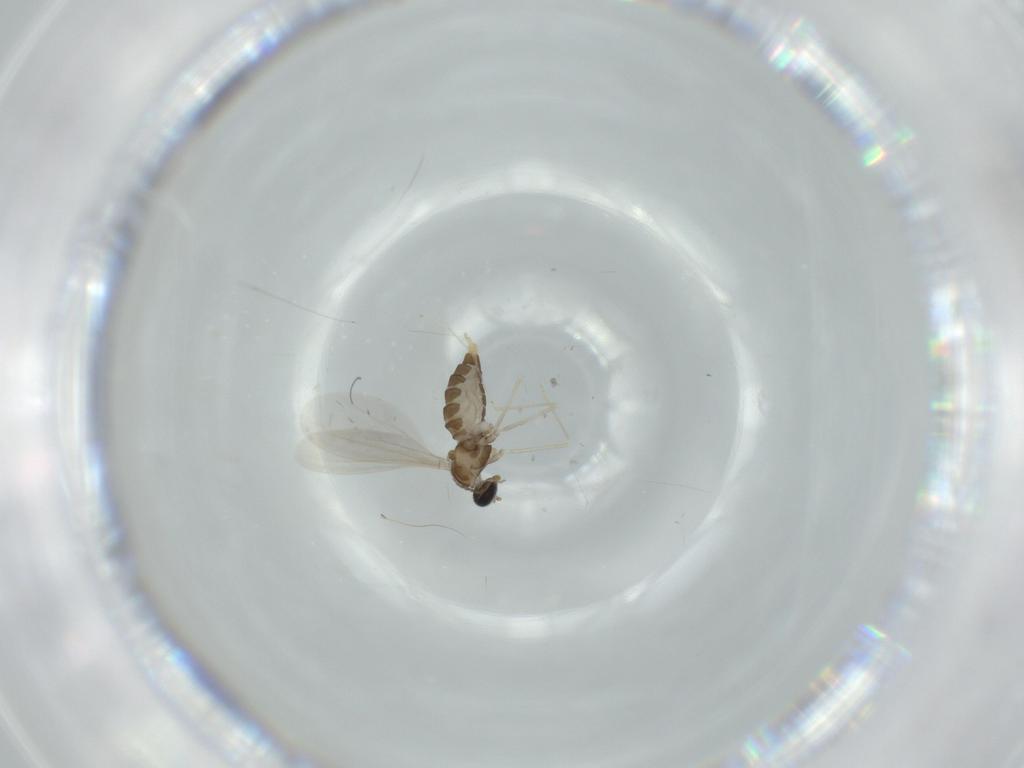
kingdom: Animalia
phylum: Arthropoda
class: Insecta
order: Diptera
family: Cecidomyiidae
